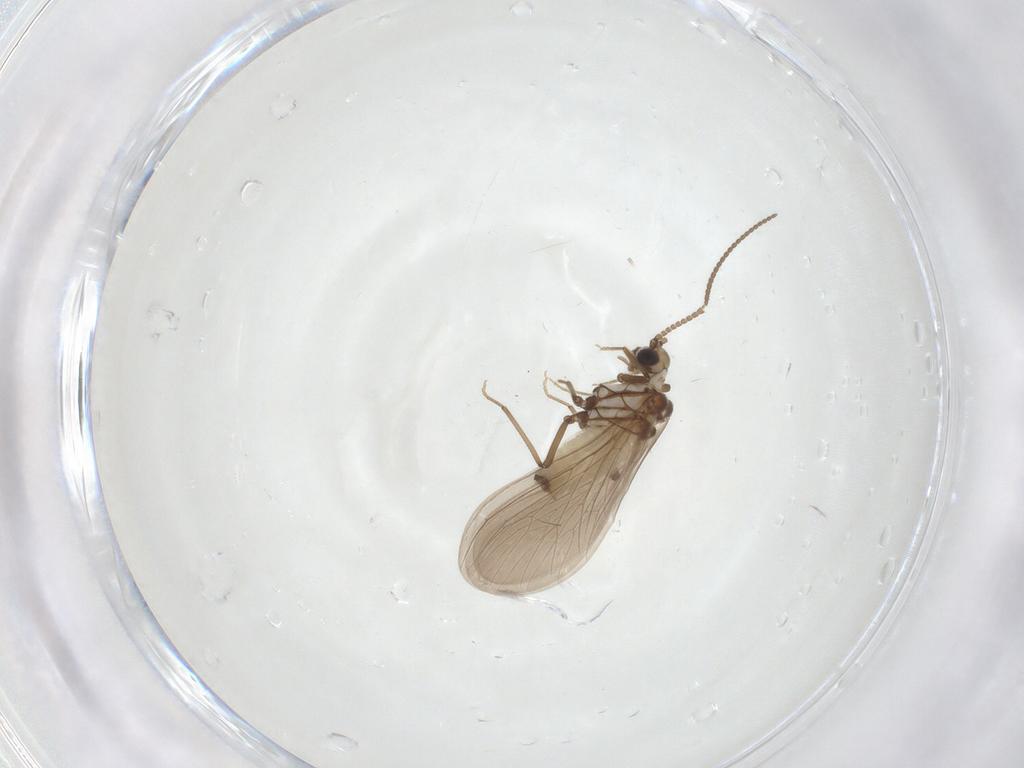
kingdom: Animalia
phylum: Arthropoda
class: Insecta
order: Neuroptera
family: Coniopterygidae
